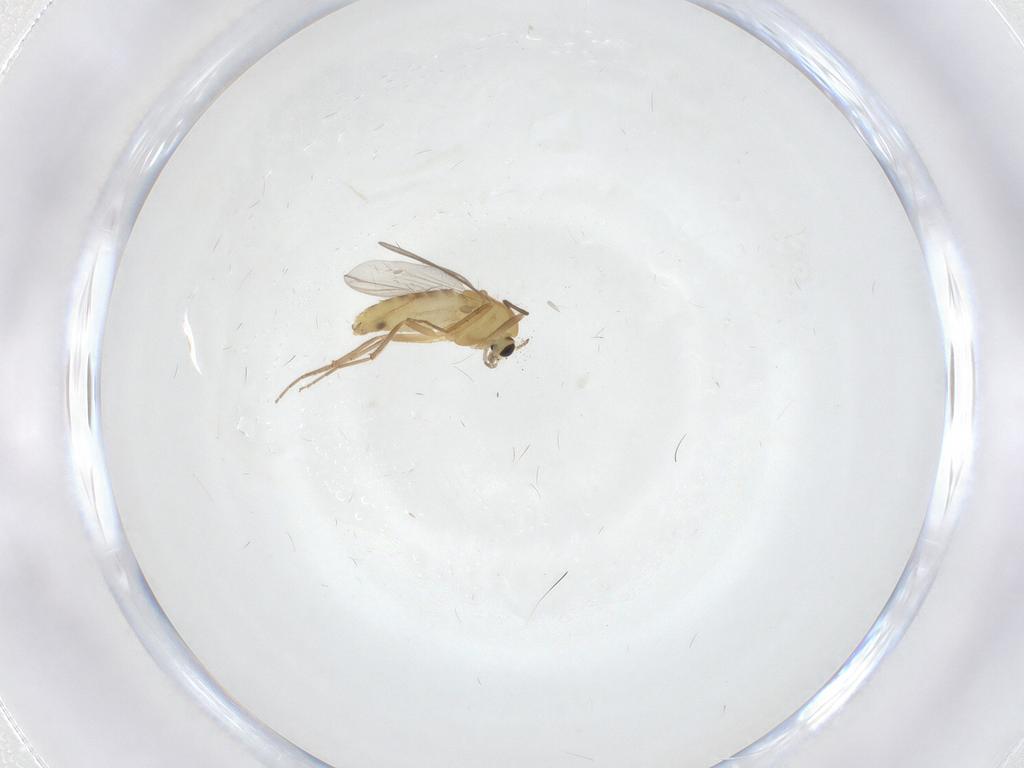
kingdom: Animalia
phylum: Arthropoda
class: Insecta
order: Diptera
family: Chironomidae
